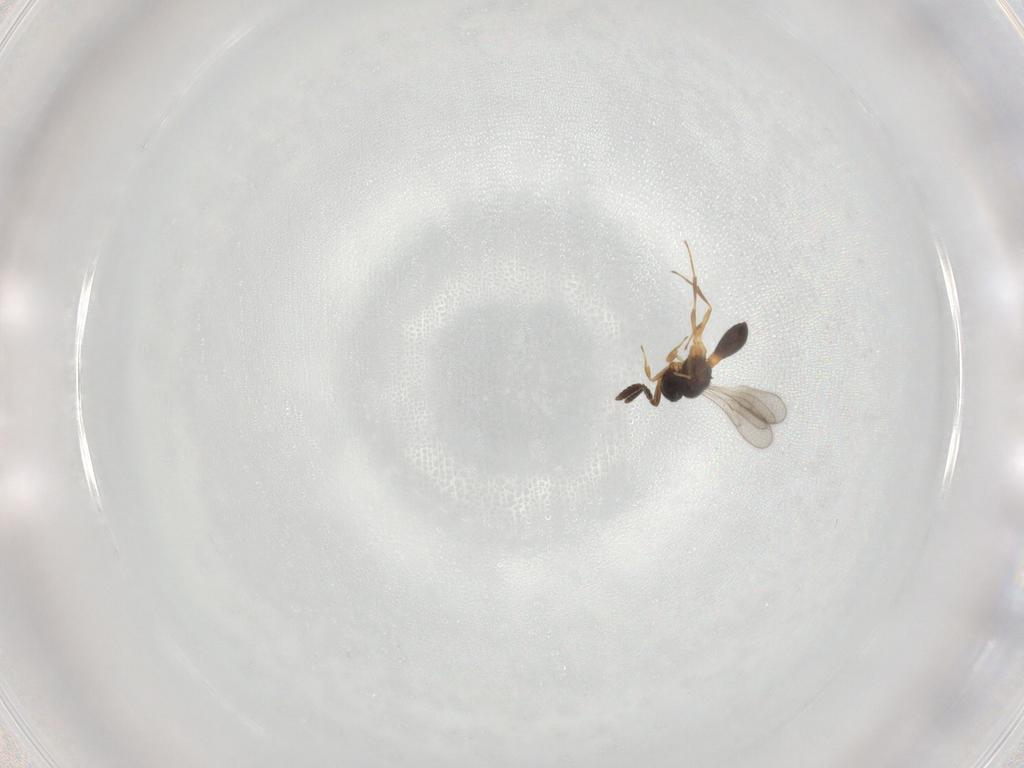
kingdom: Animalia
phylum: Arthropoda
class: Insecta
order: Hymenoptera
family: Scelionidae
